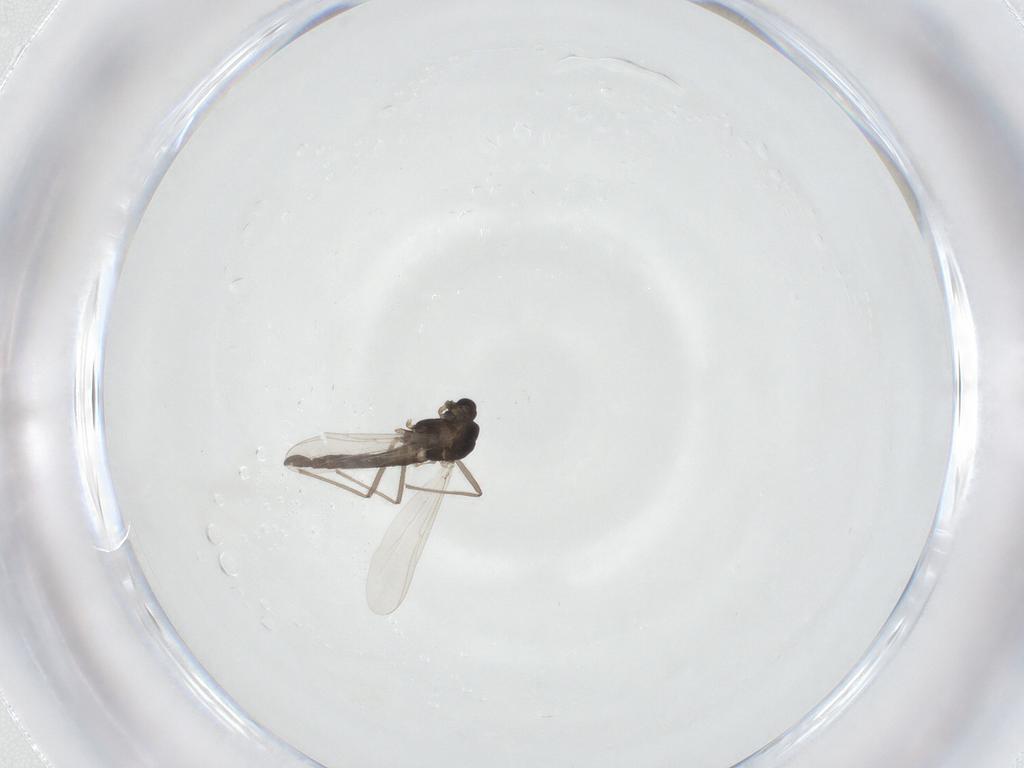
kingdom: Animalia
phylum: Arthropoda
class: Insecta
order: Diptera
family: Chironomidae
